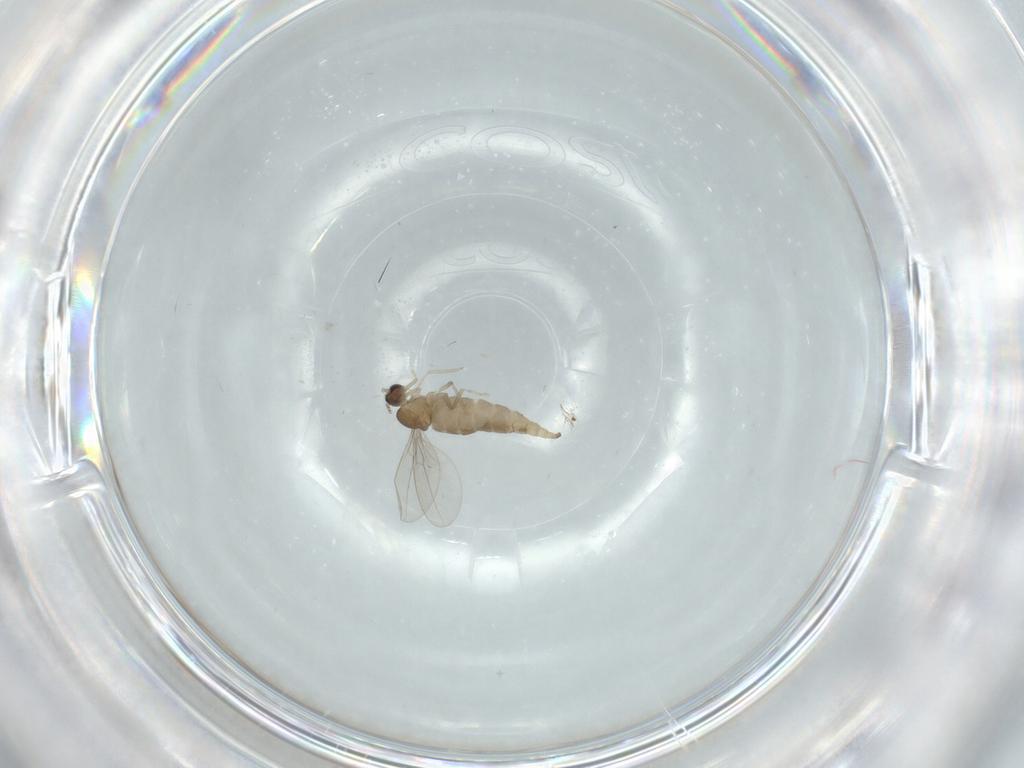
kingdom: Animalia
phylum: Arthropoda
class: Insecta
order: Diptera
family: Cecidomyiidae
